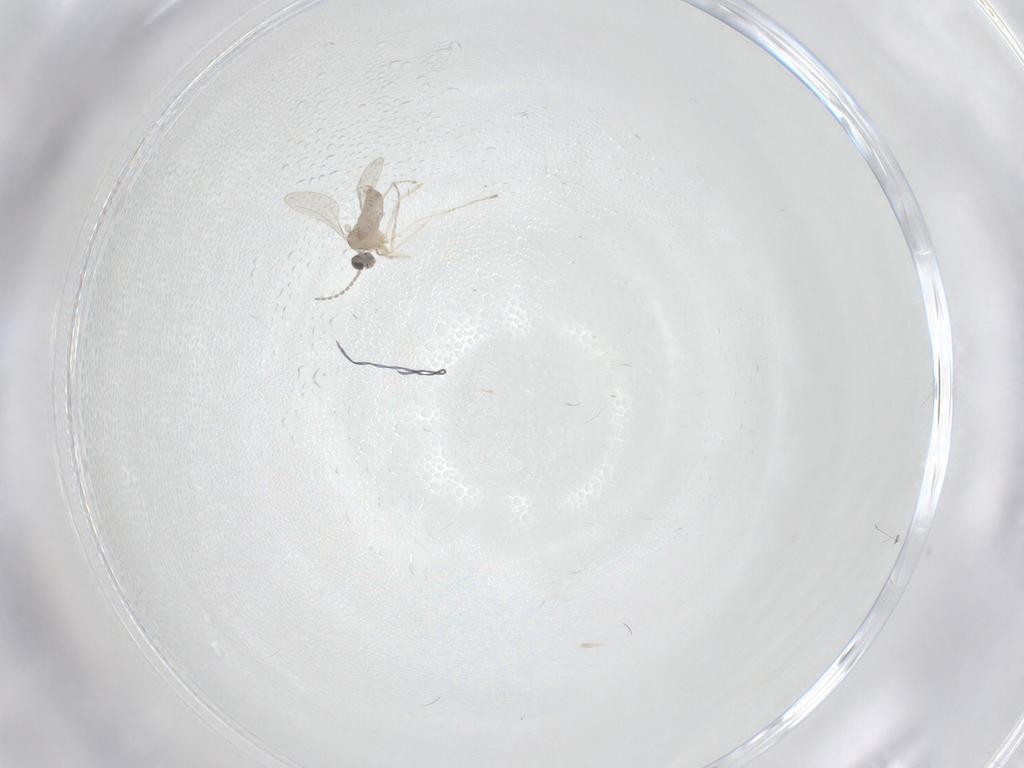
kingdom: Animalia
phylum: Arthropoda
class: Insecta
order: Diptera
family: Cecidomyiidae
